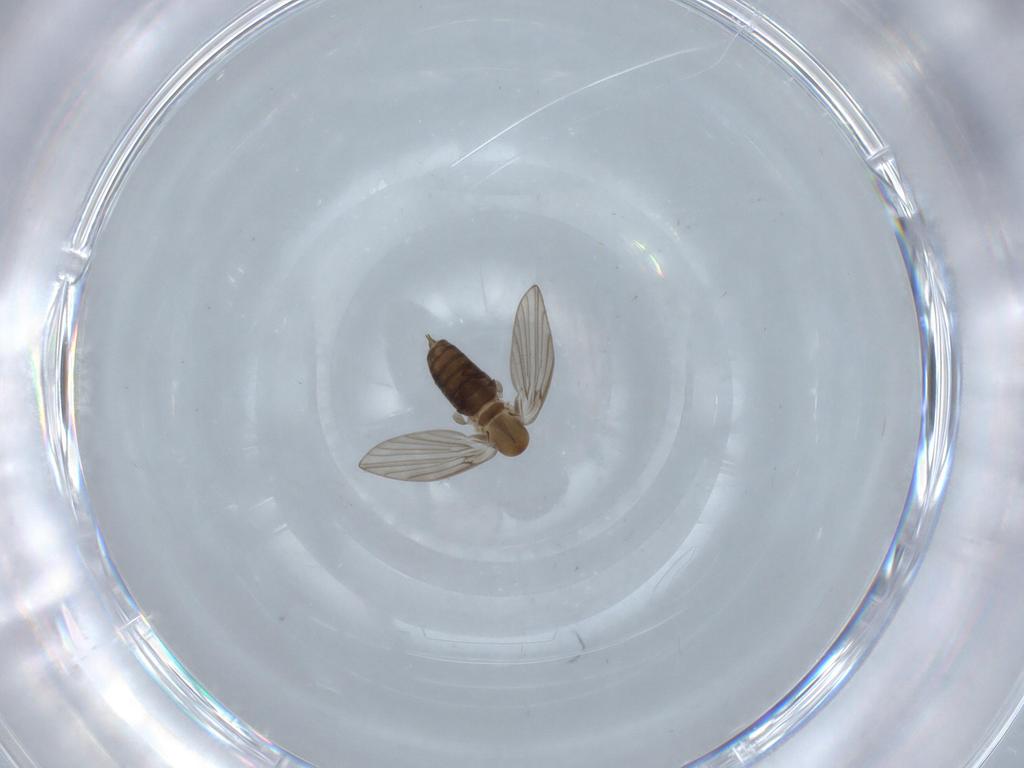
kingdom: Animalia
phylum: Arthropoda
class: Insecta
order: Diptera
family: Psychodidae
